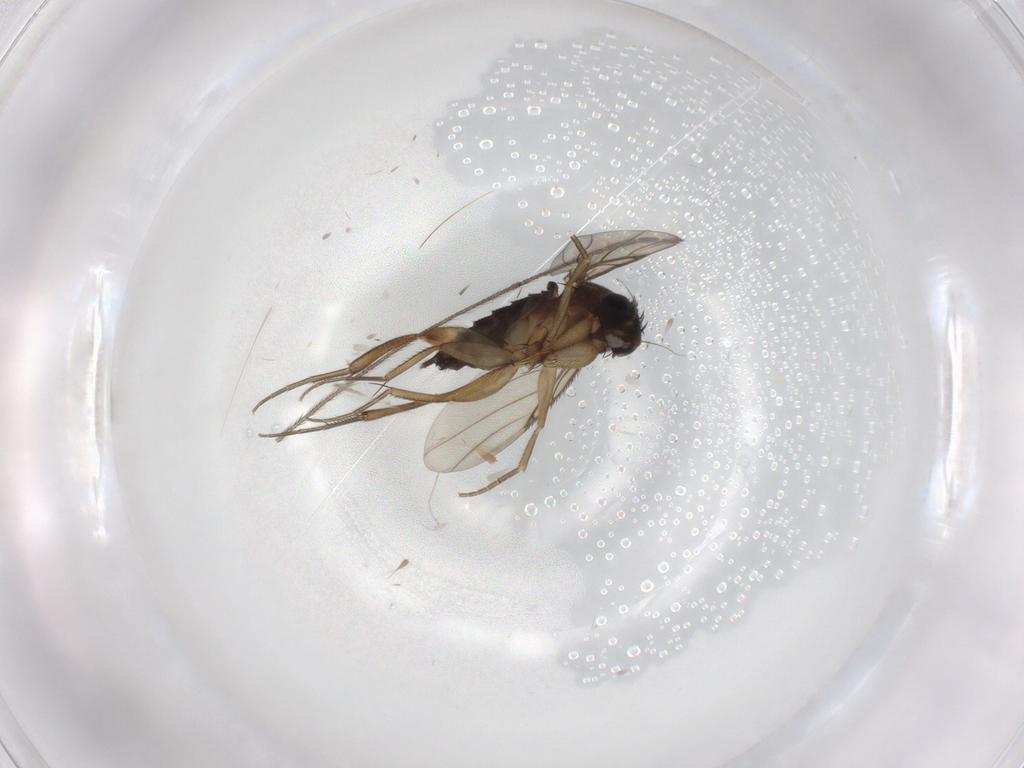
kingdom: Animalia
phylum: Arthropoda
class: Insecta
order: Diptera
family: Limoniidae
